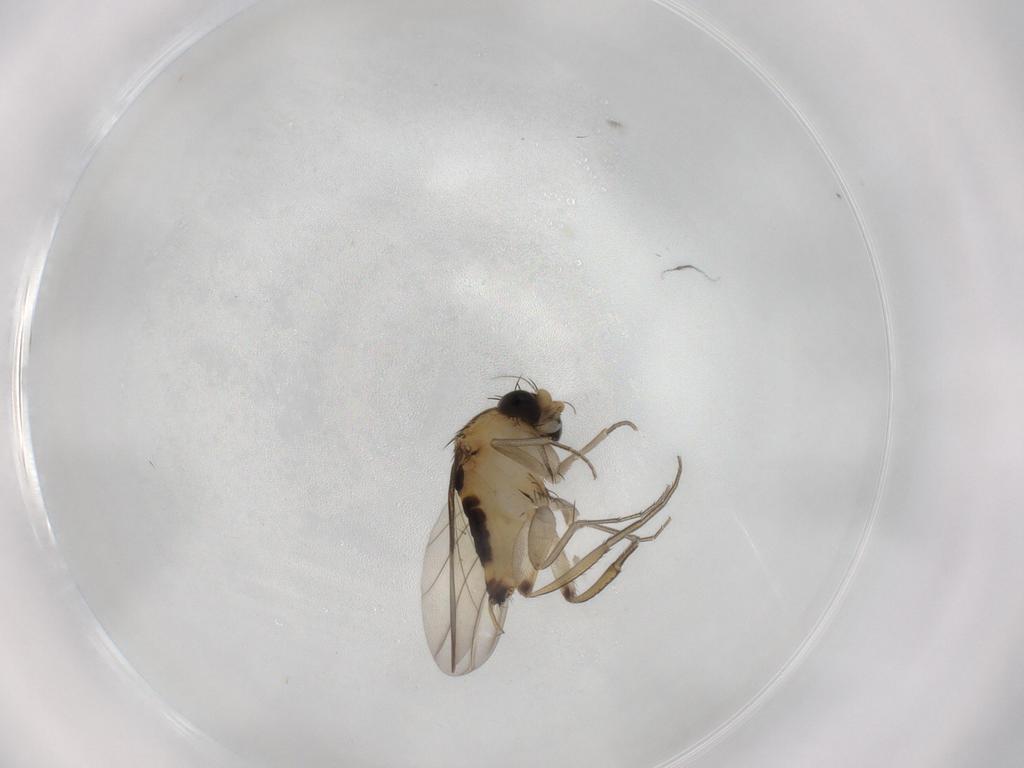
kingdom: Animalia
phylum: Arthropoda
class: Insecta
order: Diptera
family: Phoridae
